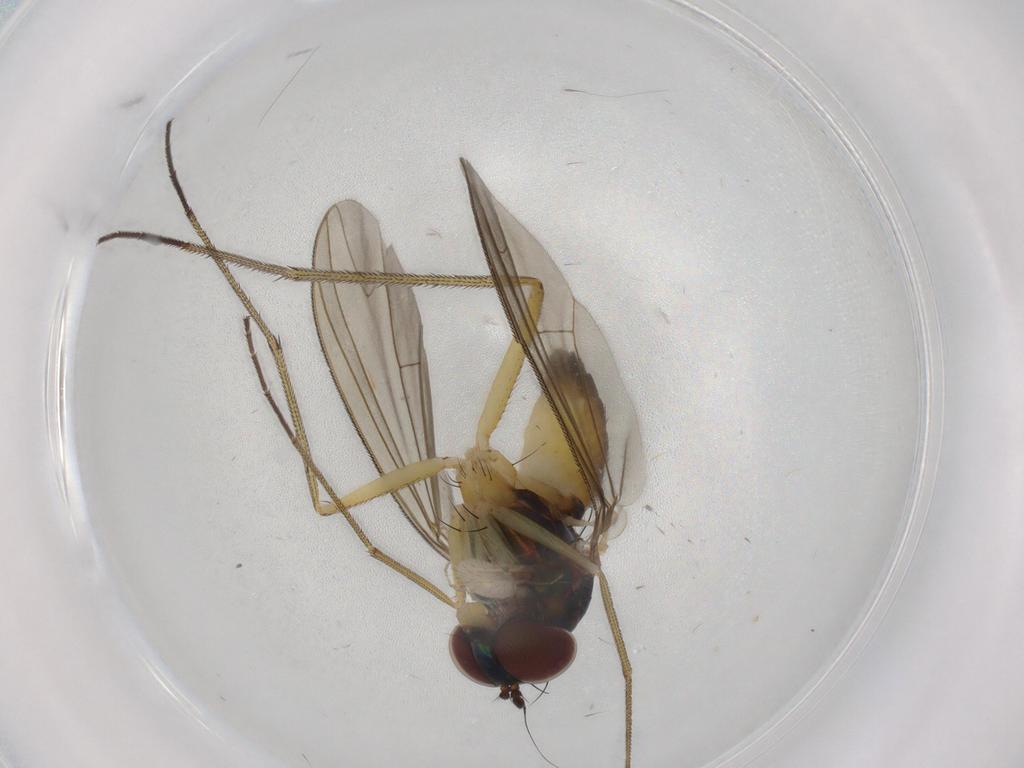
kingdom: Animalia
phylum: Arthropoda
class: Insecta
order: Diptera
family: Dolichopodidae
